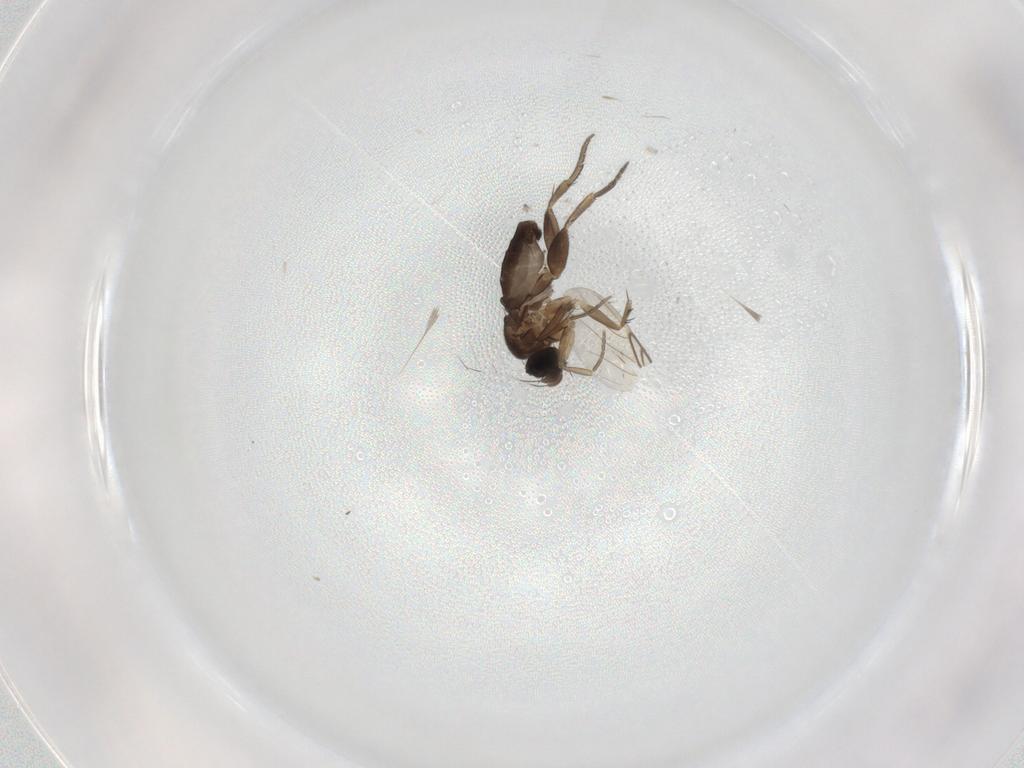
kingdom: Animalia
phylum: Arthropoda
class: Insecta
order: Diptera
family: Phoridae
